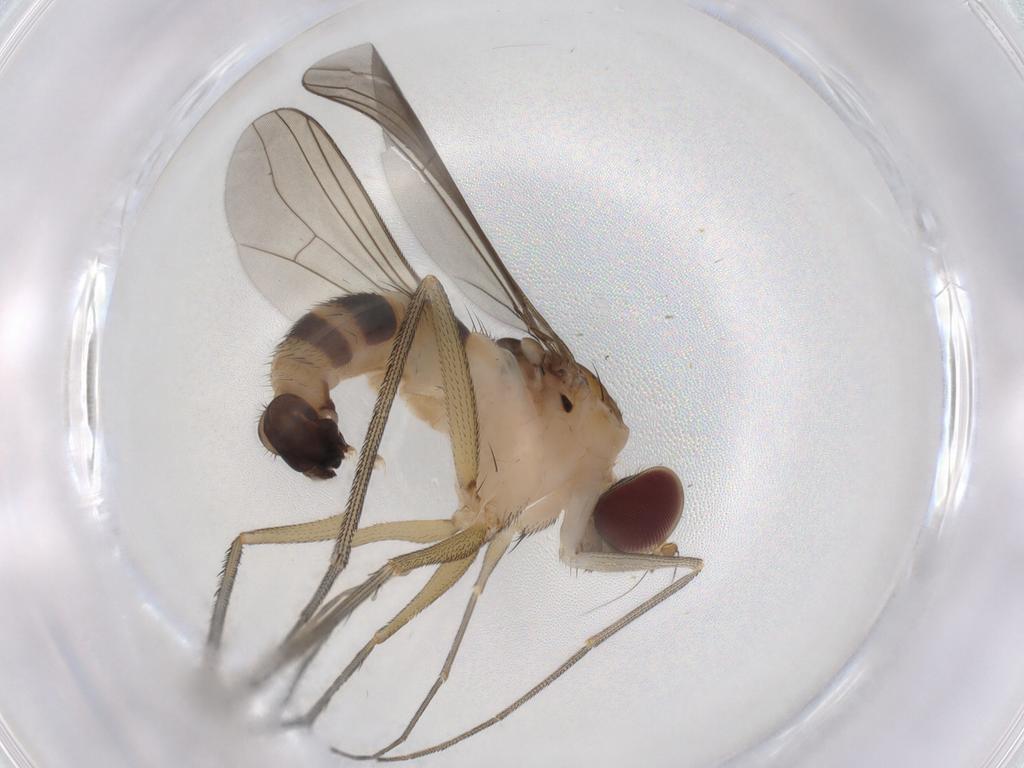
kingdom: Animalia
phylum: Arthropoda
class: Insecta
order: Diptera
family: Dolichopodidae
